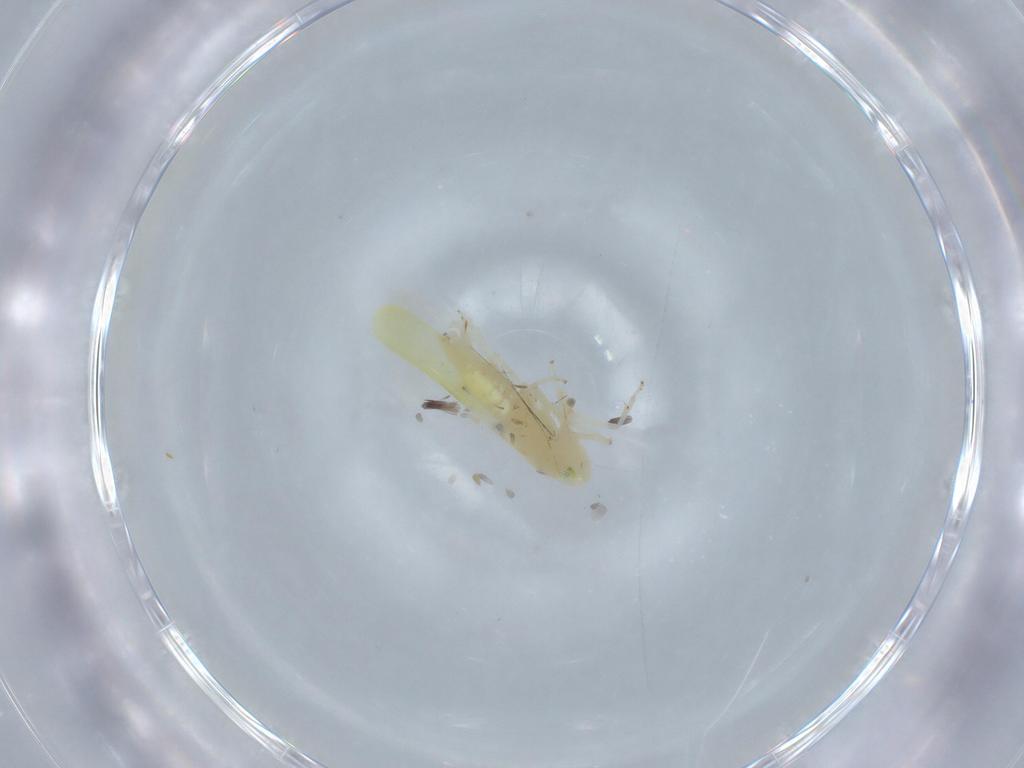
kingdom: Animalia
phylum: Arthropoda
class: Insecta
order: Hemiptera
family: Cicadellidae
